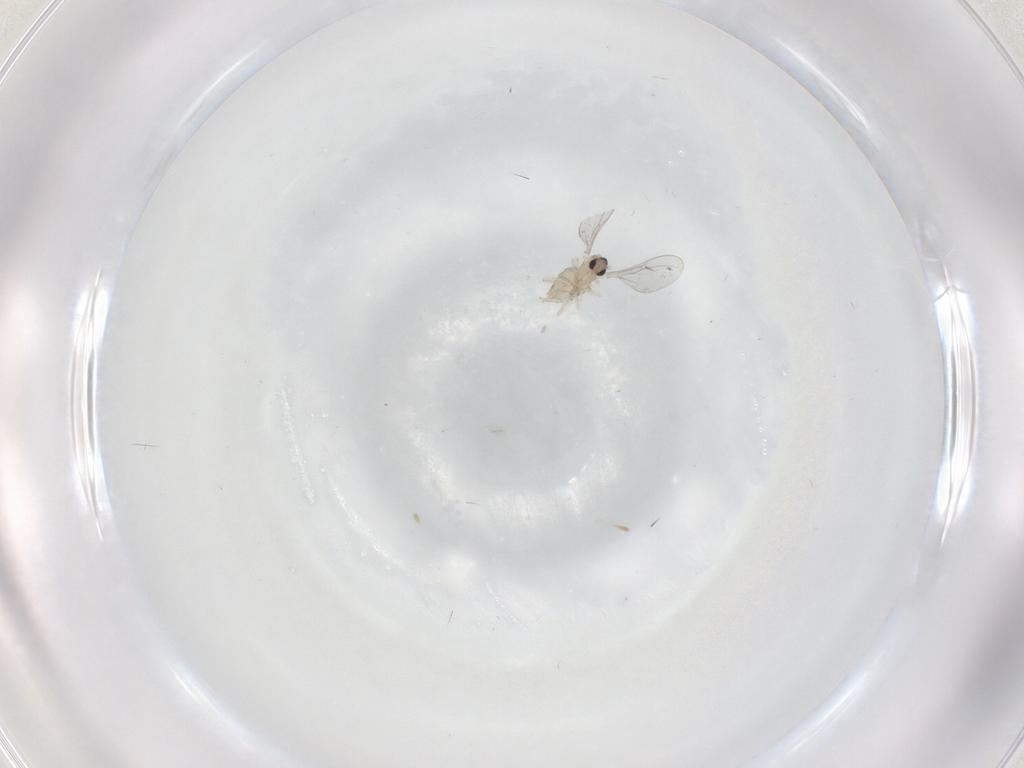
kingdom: Animalia
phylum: Arthropoda
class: Insecta
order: Diptera
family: Cecidomyiidae
